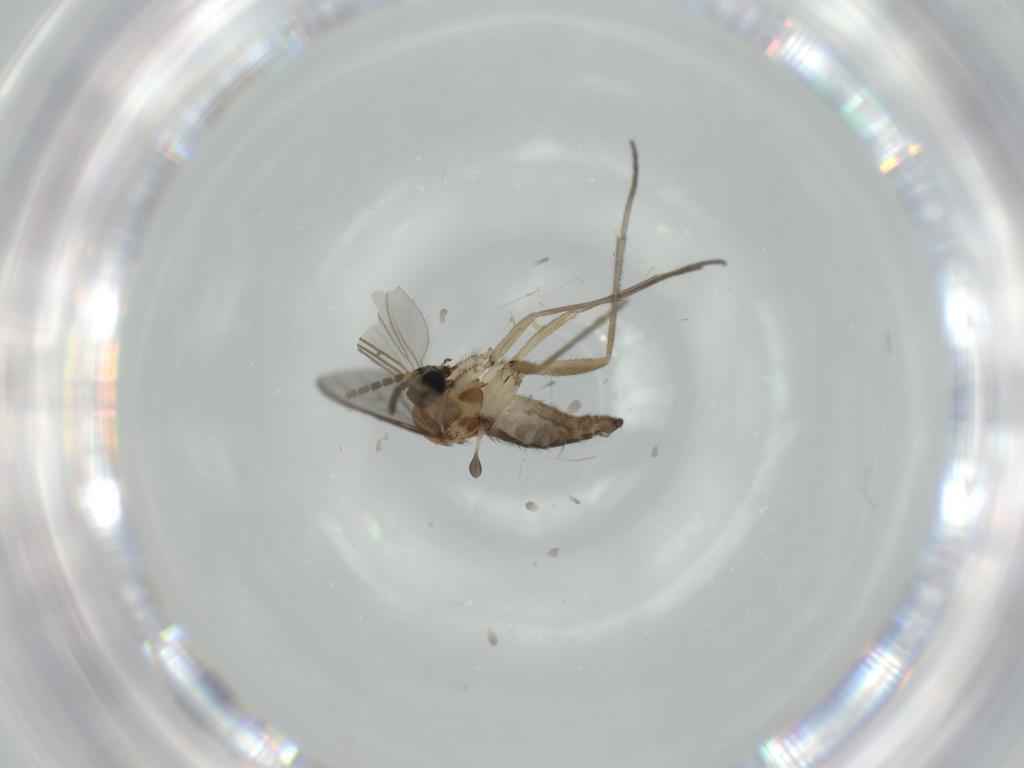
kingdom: Animalia
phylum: Arthropoda
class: Insecta
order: Diptera
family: Sciaridae
